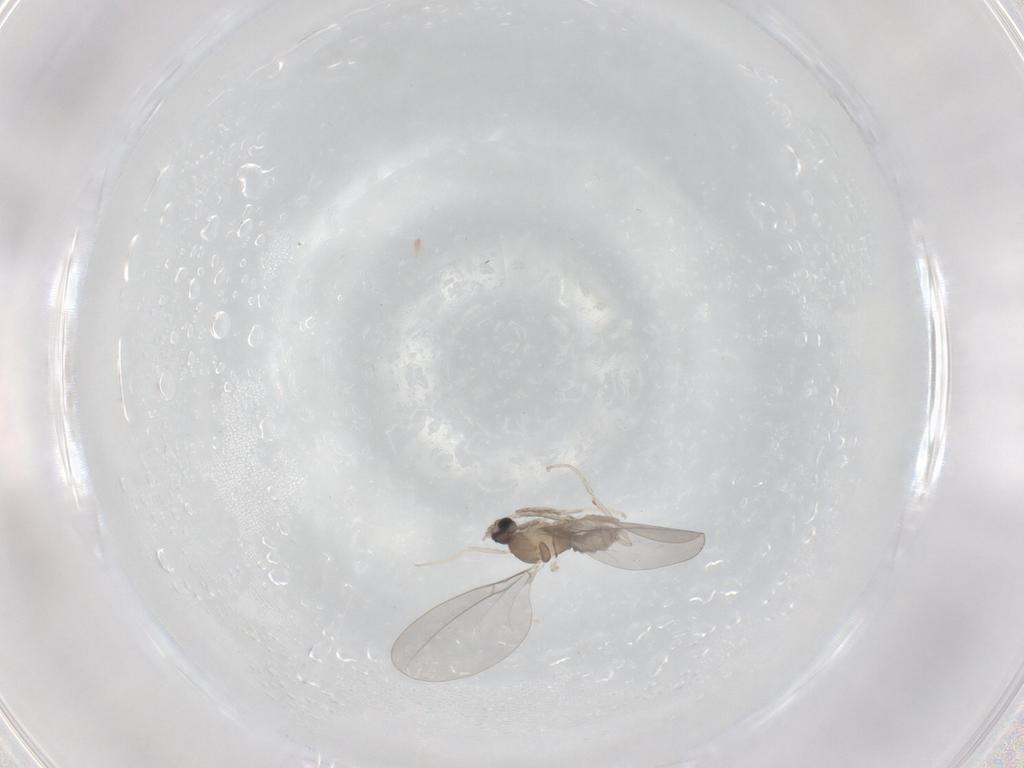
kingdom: Animalia
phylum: Arthropoda
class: Insecta
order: Diptera
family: Cecidomyiidae
